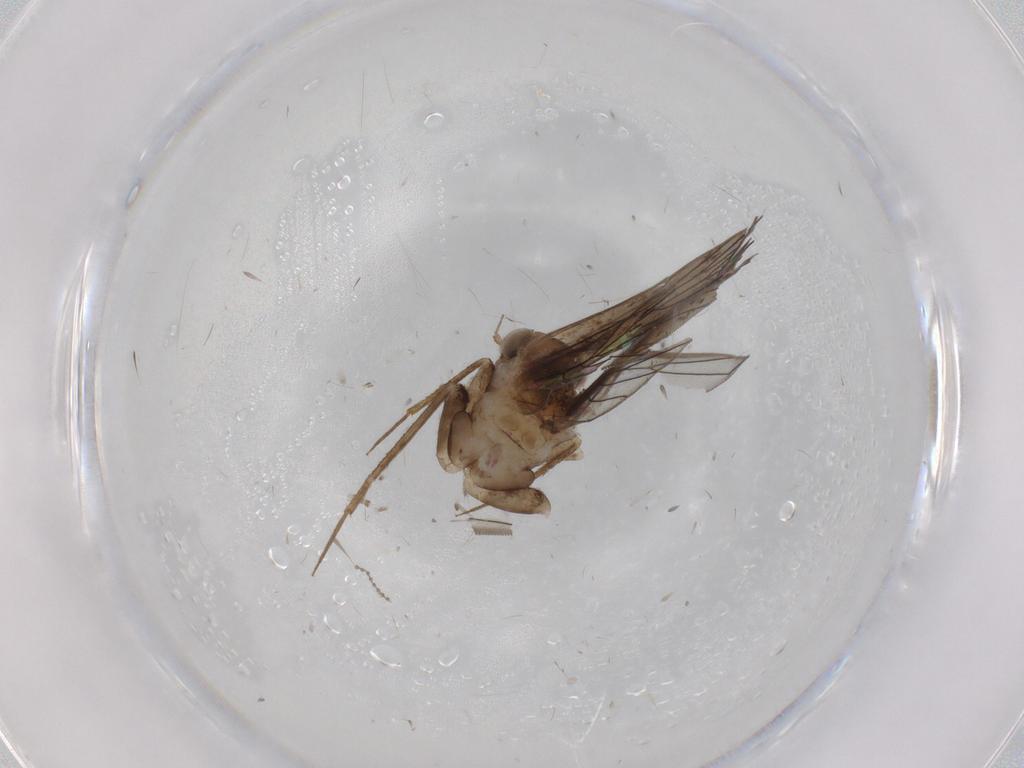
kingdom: Animalia
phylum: Arthropoda
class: Insecta
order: Psocodea
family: Lepidopsocidae
